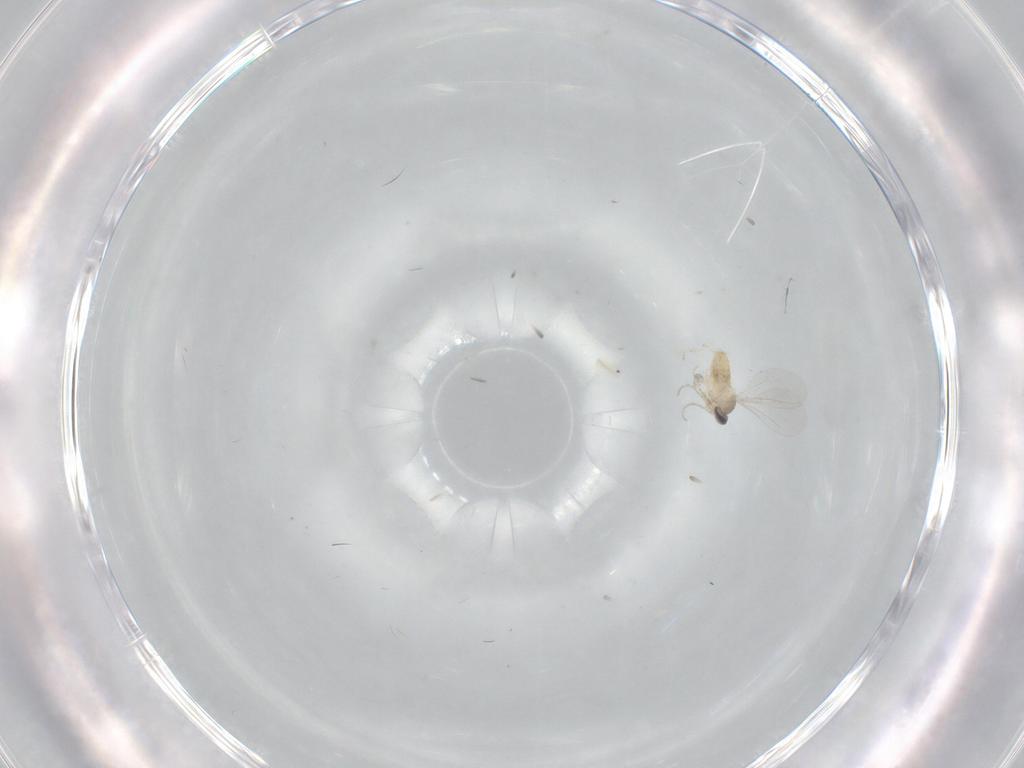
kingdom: Animalia
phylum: Arthropoda
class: Insecta
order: Diptera
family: Cecidomyiidae
